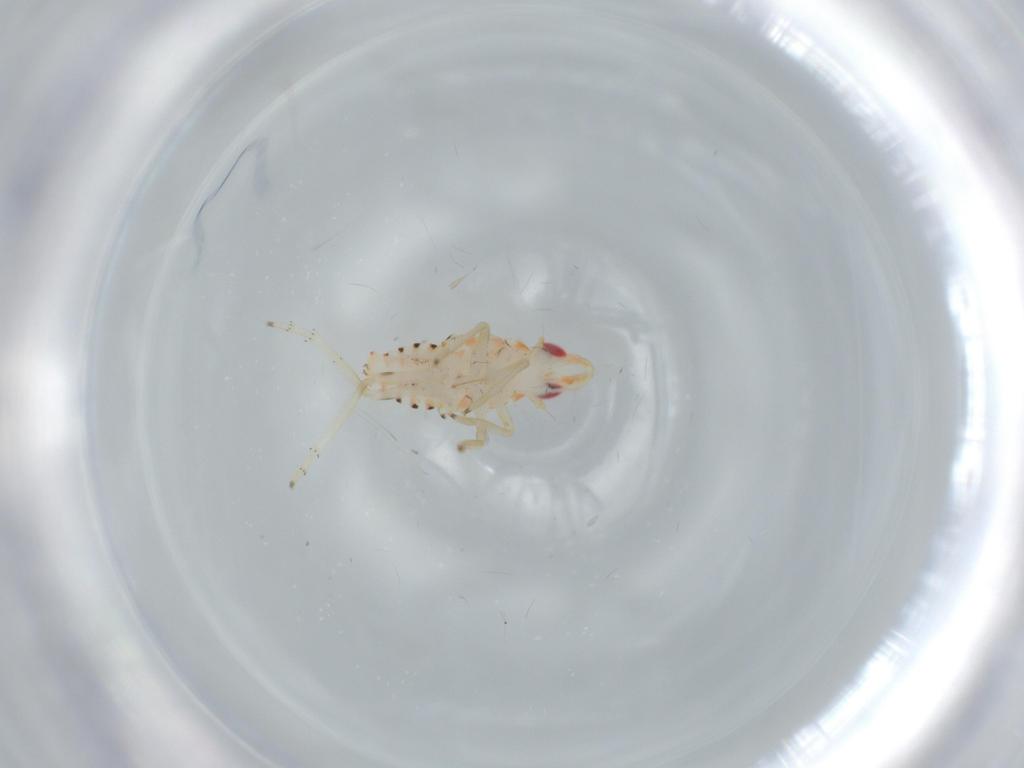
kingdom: Animalia
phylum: Arthropoda
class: Insecta
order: Hemiptera
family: Tropiduchidae
